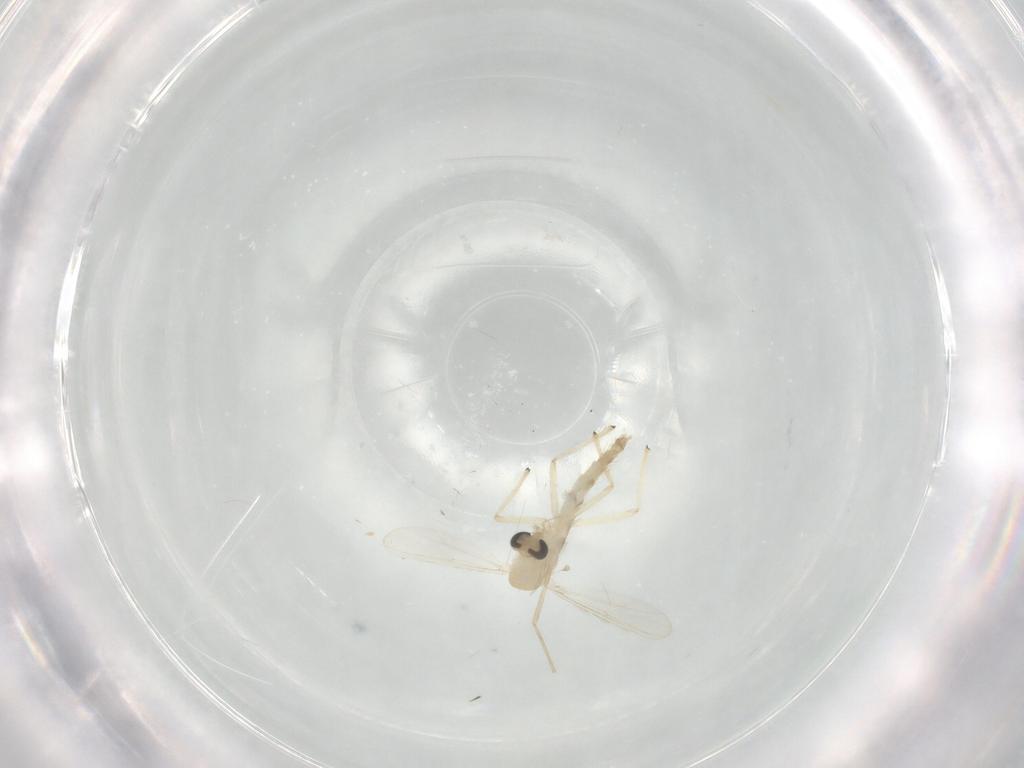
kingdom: Animalia
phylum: Arthropoda
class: Insecta
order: Diptera
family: Chironomidae
